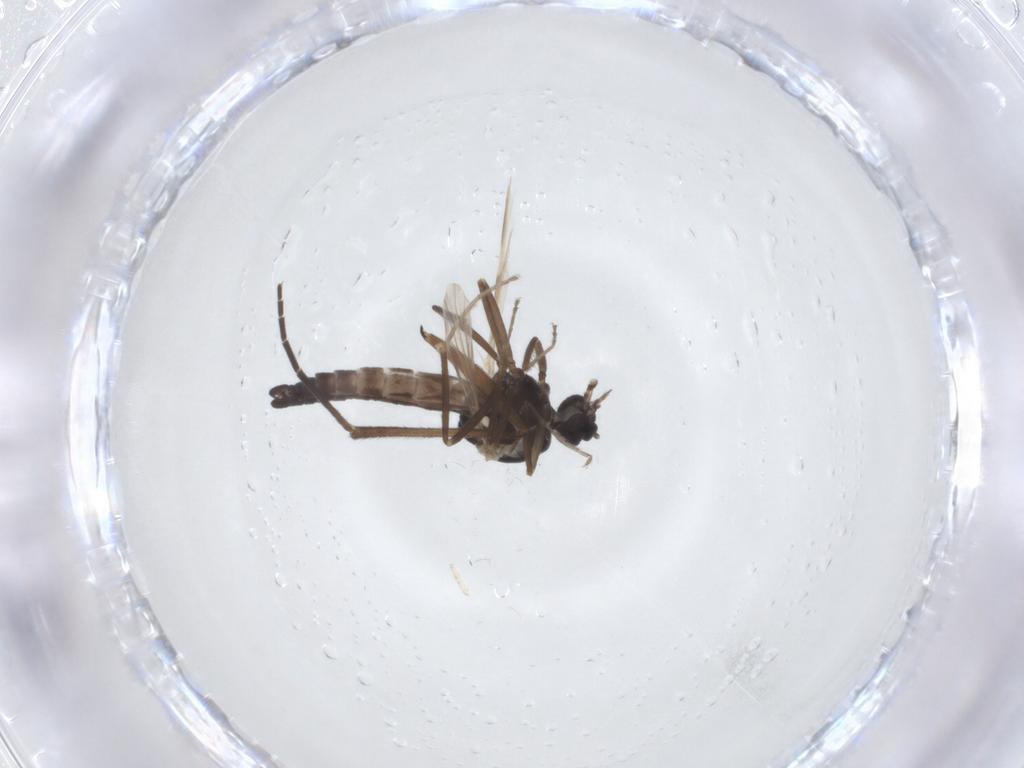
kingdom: Animalia
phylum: Arthropoda
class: Insecta
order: Diptera
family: Ceratopogonidae
